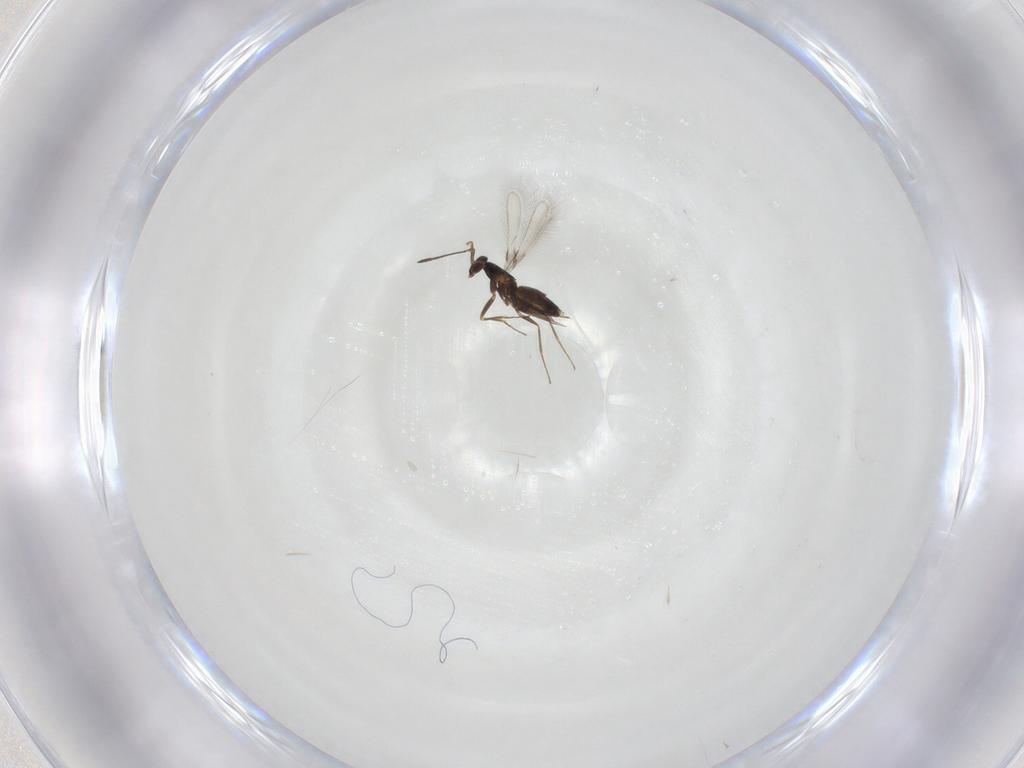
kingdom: Animalia
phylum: Arthropoda
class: Insecta
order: Hymenoptera
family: Mymaridae
